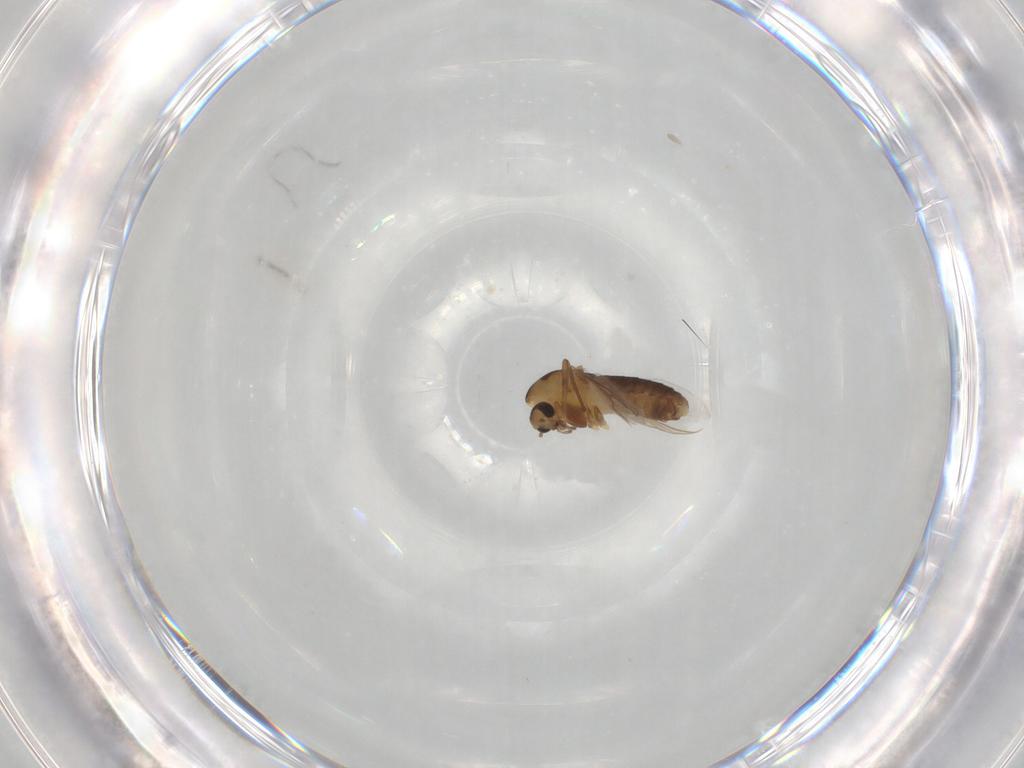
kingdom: Animalia
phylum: Arthropoda
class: Insecta
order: Diptera
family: Chironomidae
